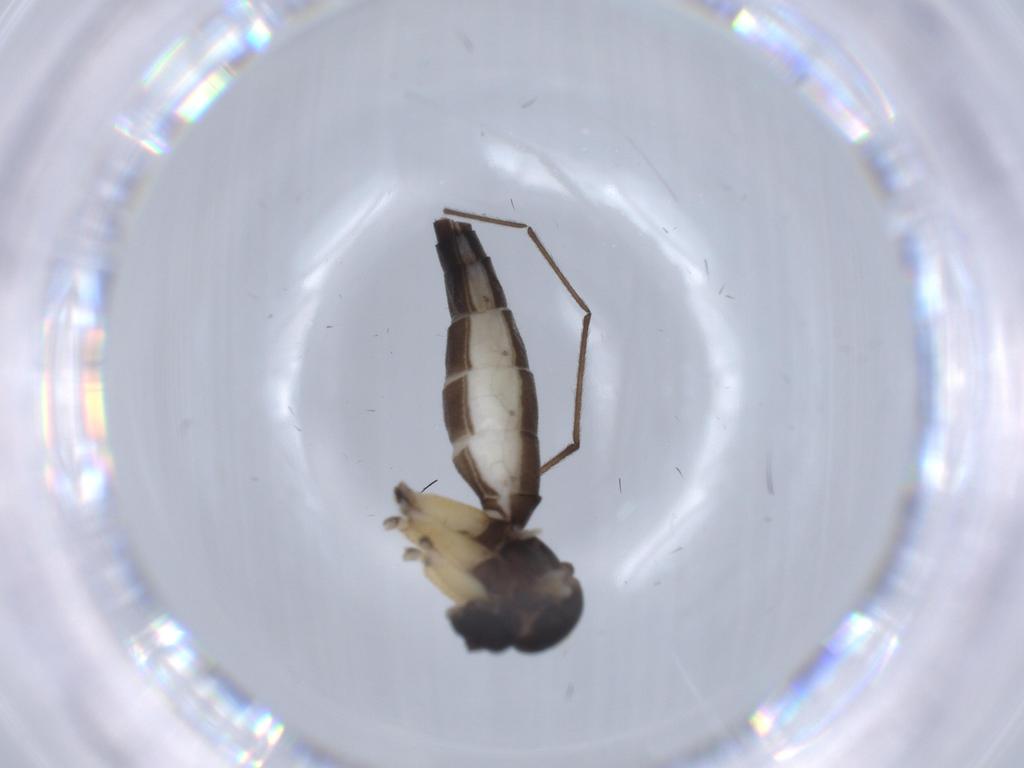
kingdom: Animalia
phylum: Arthropoda
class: Insecta
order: Diptera
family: Mycetophilidae
